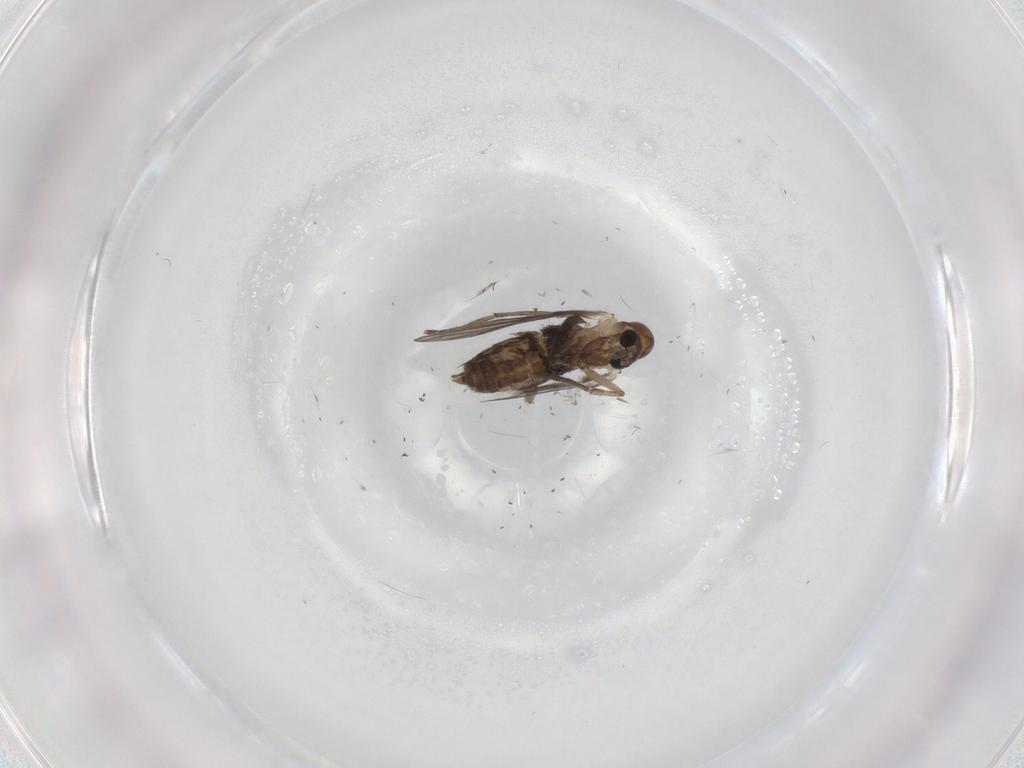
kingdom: Animalia
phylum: Arthropoda
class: Insecta
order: Diptera
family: Psychodidae
